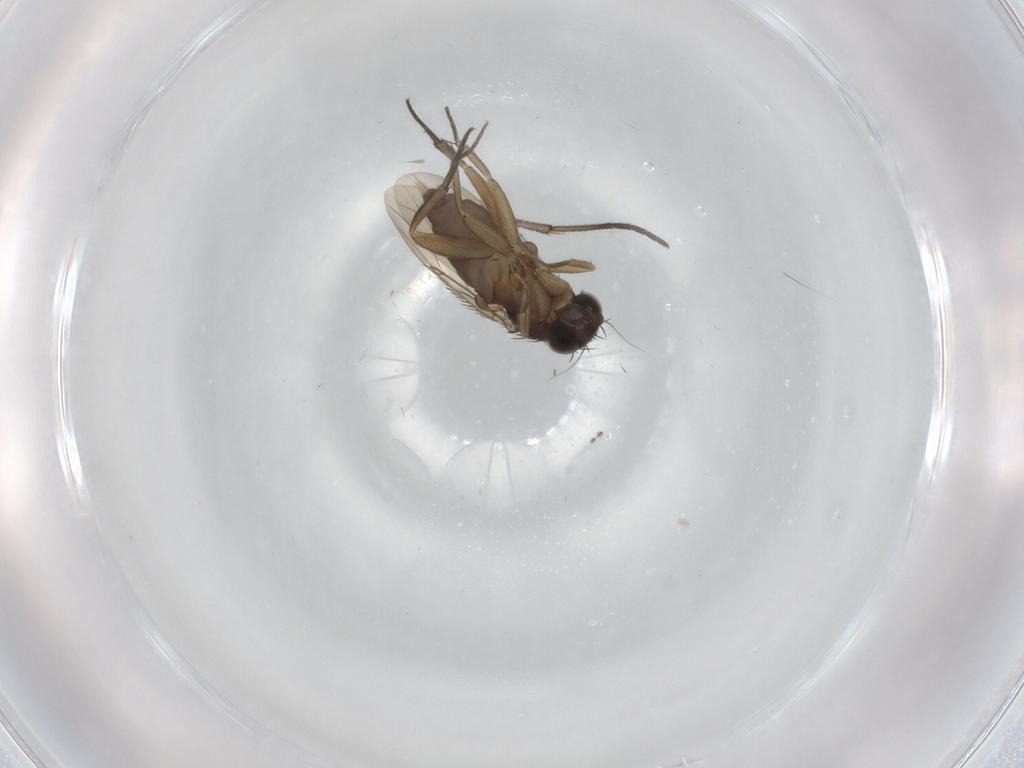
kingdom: Animalia
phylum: Arthropoda
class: Insecta
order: Diptera
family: Phoridae
